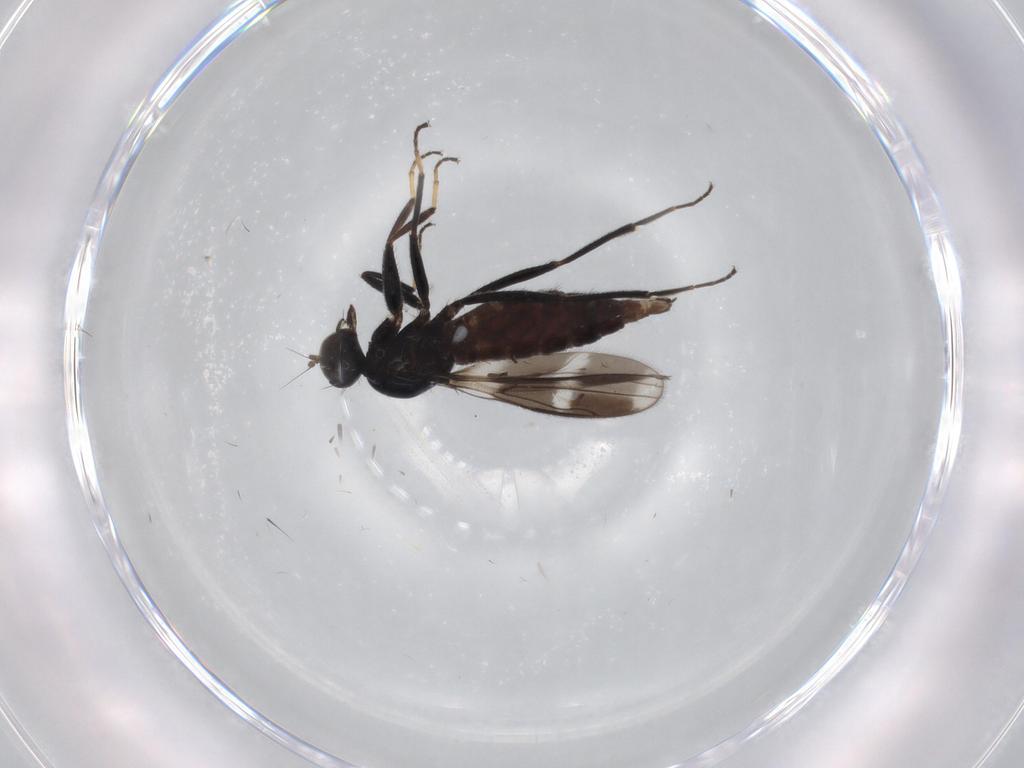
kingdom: Animalia
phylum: Arthropoda
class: Insecta
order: Diptera
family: Hybotidae
